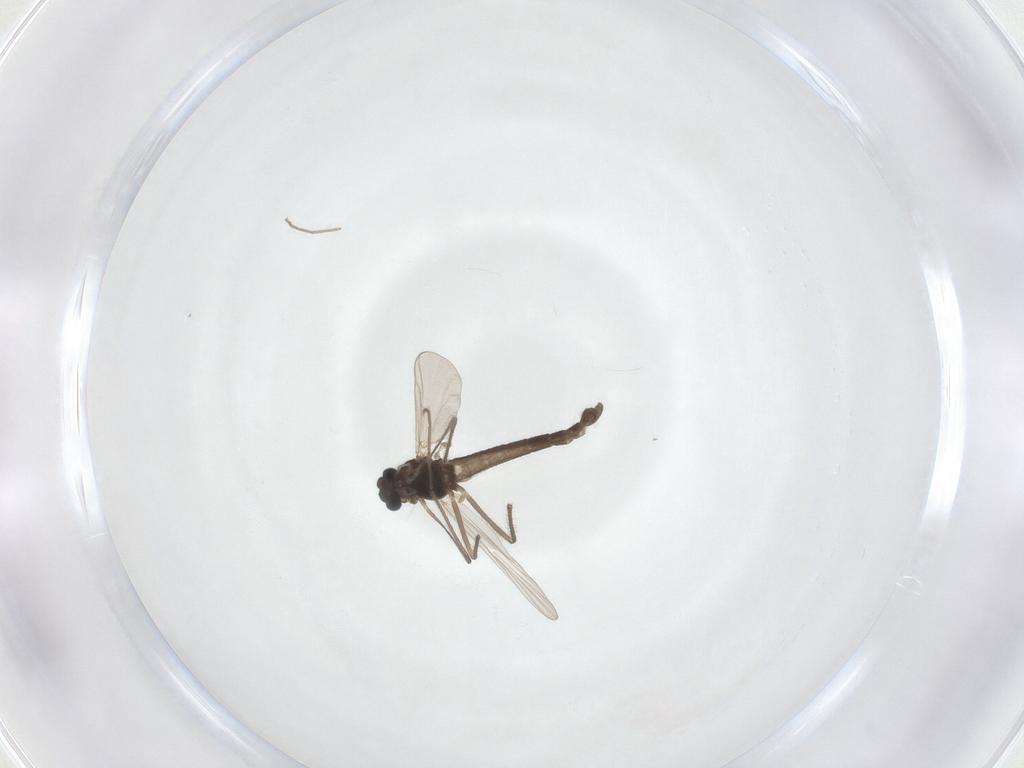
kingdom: Animalia
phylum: Arthropoda
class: Insecta
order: Diptera
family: Chironomidae
